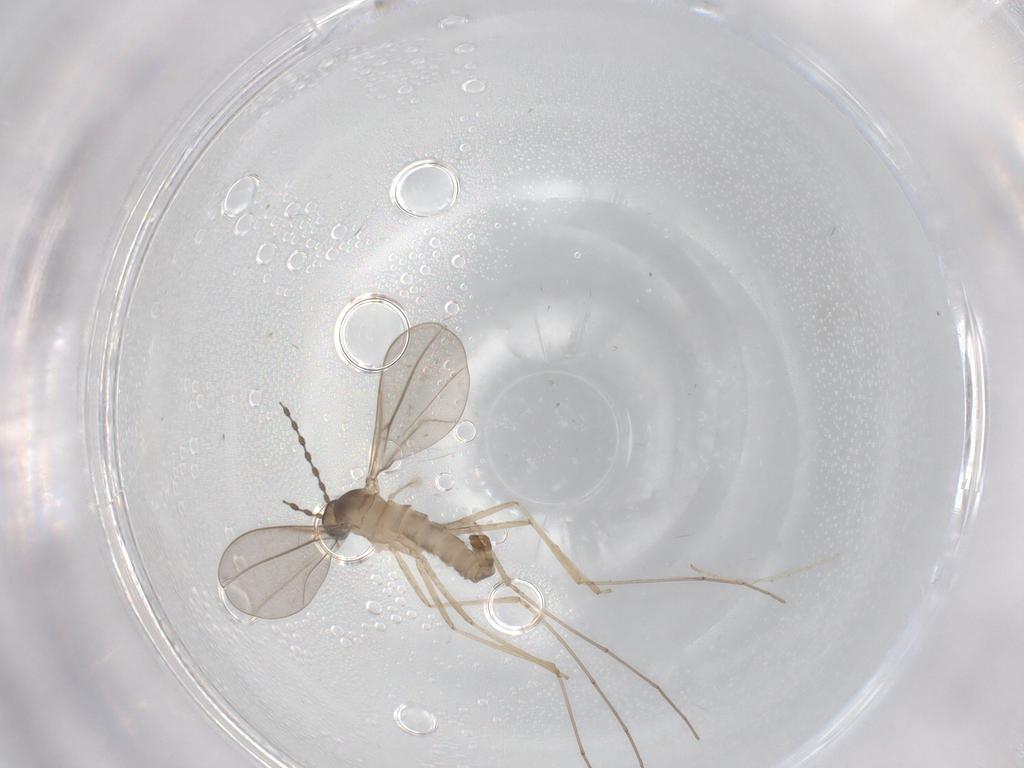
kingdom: Animalia
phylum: Arthropoda
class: Insecta
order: Diptera
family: Cecidomyiidae
